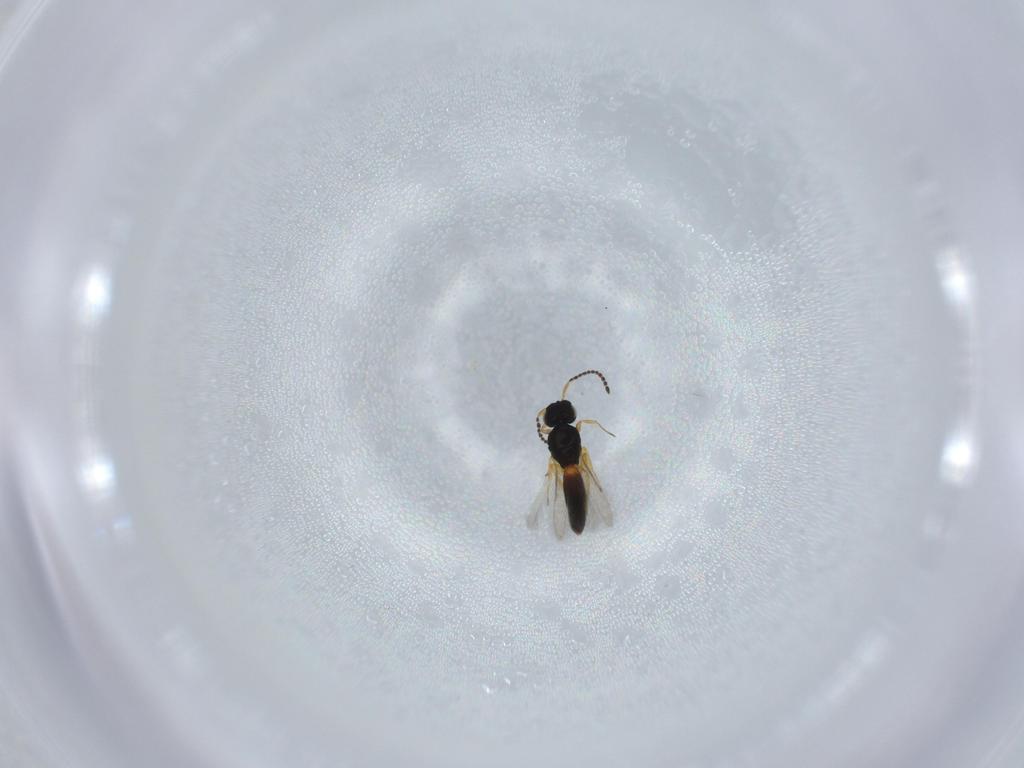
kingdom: Animalia
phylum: Arthropoda
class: Insecta
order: Hymenoptera
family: Scelionidae
